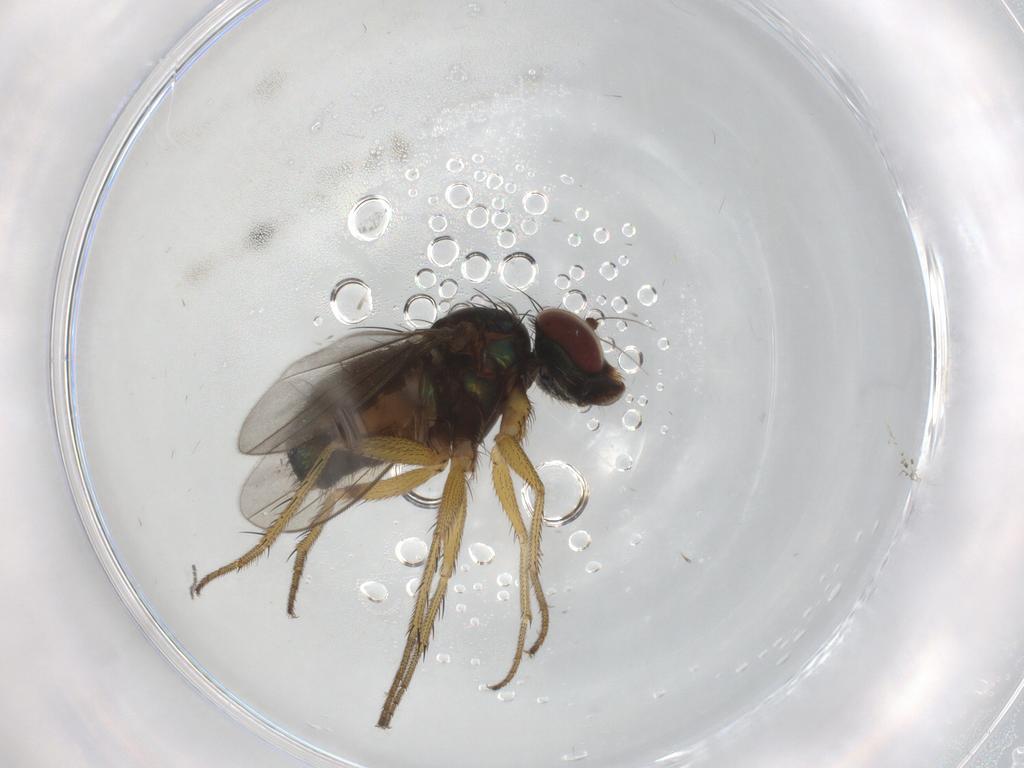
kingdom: Animalia
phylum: Arthropoda
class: Insecta
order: Diptera
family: Dolichopodidae
